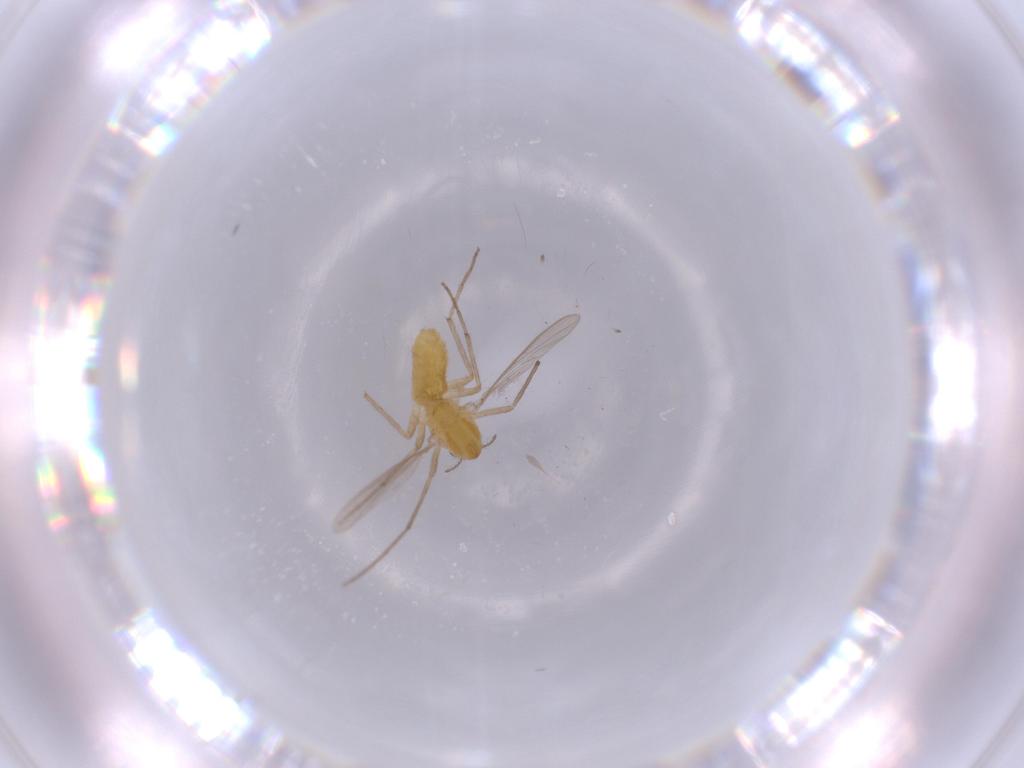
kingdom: Animalia
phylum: Arthropoda
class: Insecta
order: Diptera
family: Chironomidae
